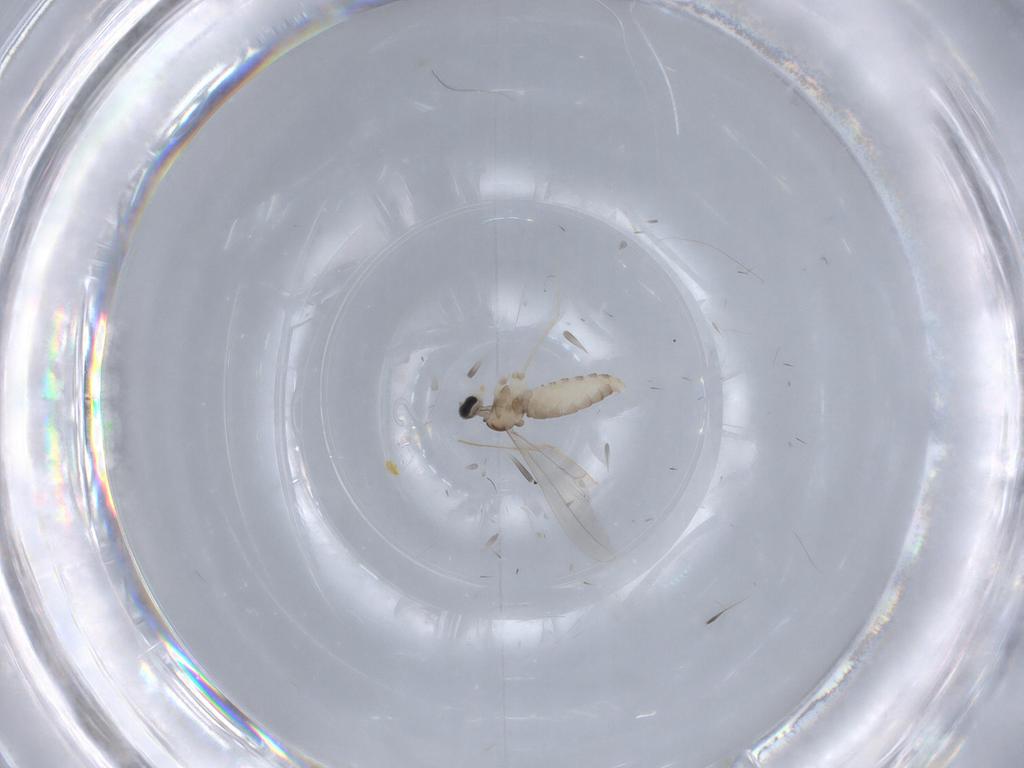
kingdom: Animalia
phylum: Arthropoda
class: Insecta
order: Diptera
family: Cecidomyiidae
